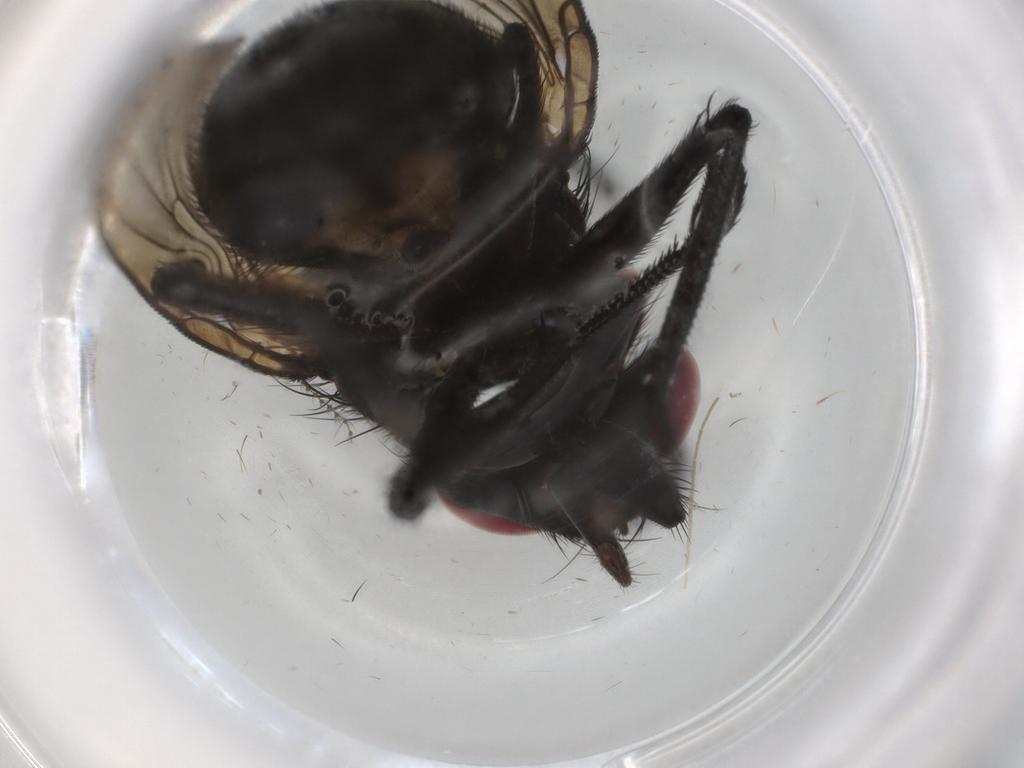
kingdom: Animalia
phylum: Arthropoda
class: Insecta
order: Diptera
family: Muscidae
